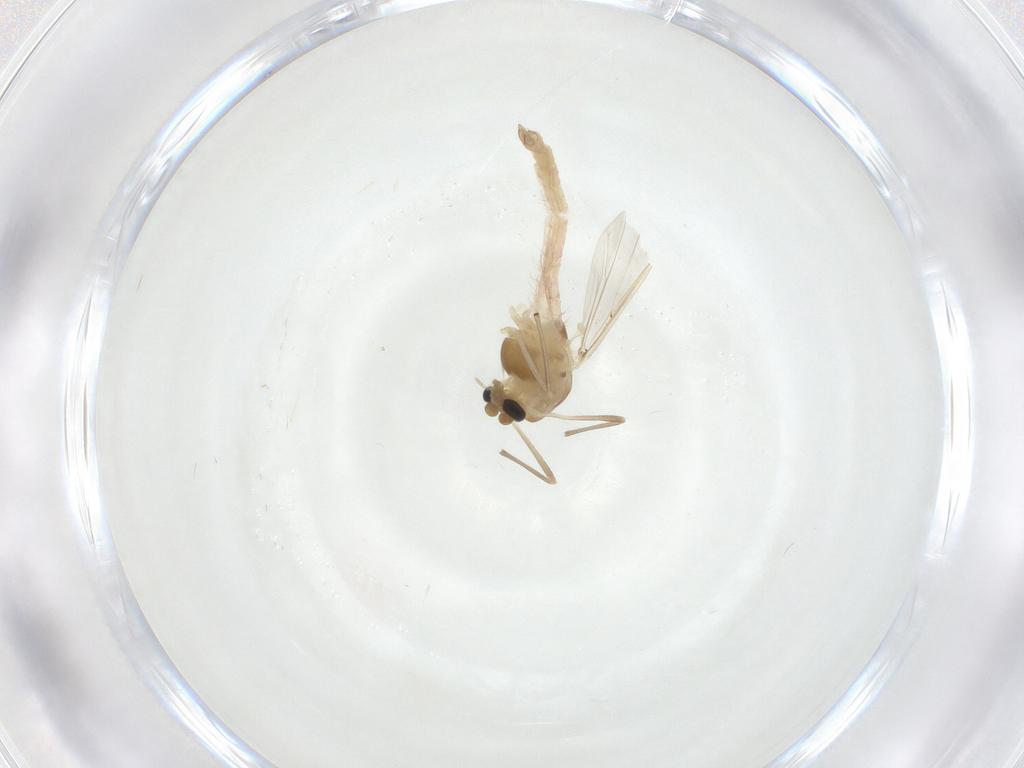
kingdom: Animalia
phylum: Arthropoda
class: Insecta
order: Diptera
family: Chironomidae
